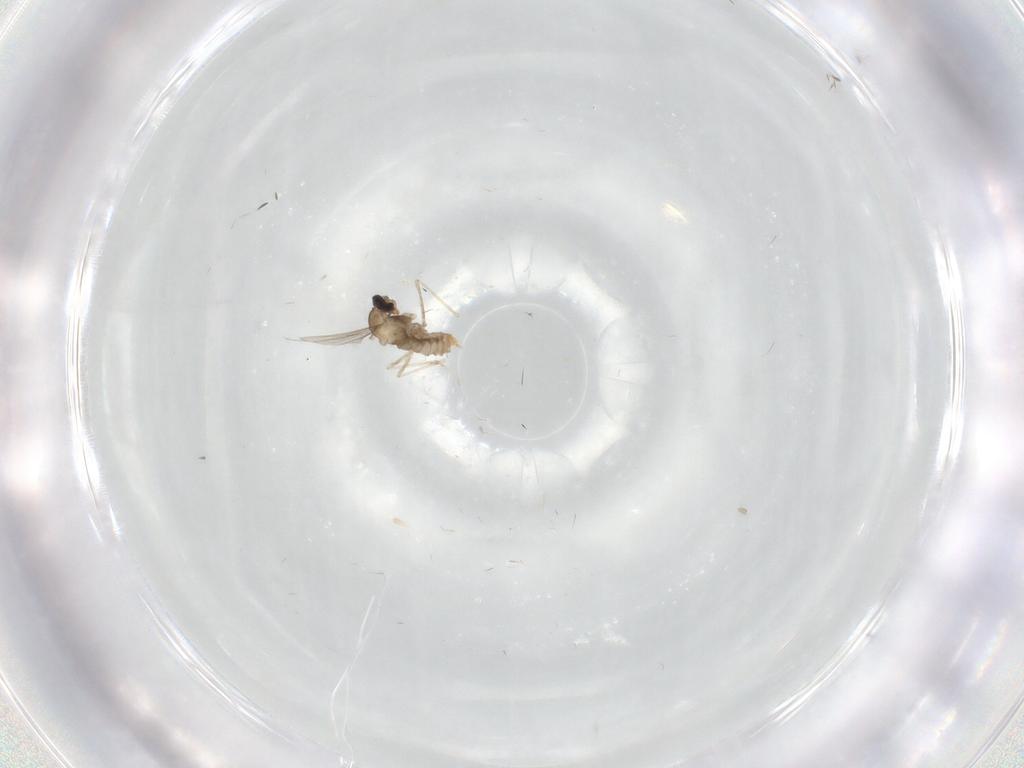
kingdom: Animalia
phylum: Arthropoda
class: Insecta
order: Diptera
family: Cecidomyiidae
